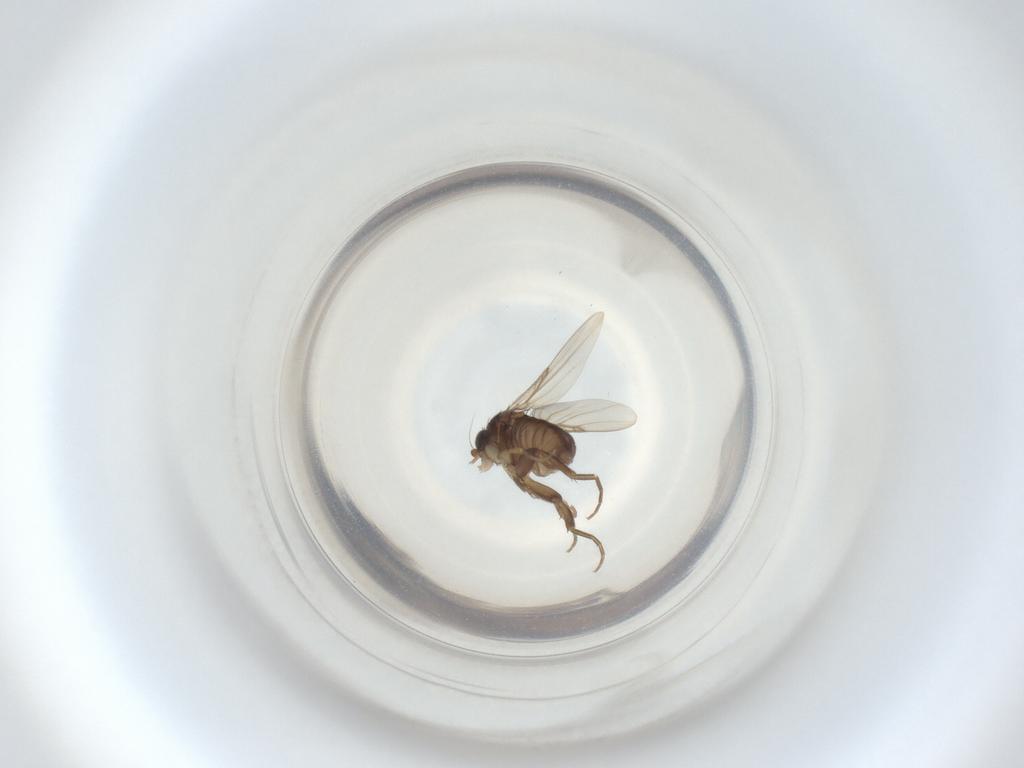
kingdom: Animalia
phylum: Arthropoda
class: Insecta
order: Diptera
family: Phoridae
